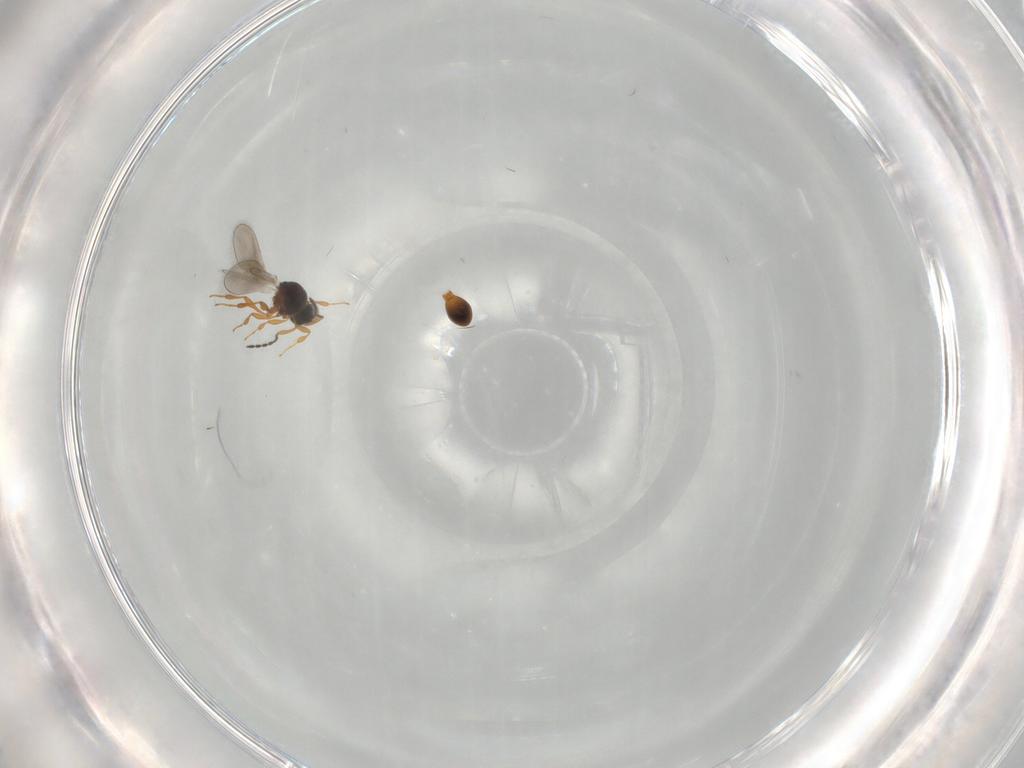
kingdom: Animalia
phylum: Arthropoda
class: Insecta
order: Hymenoptera
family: Platygastridae
